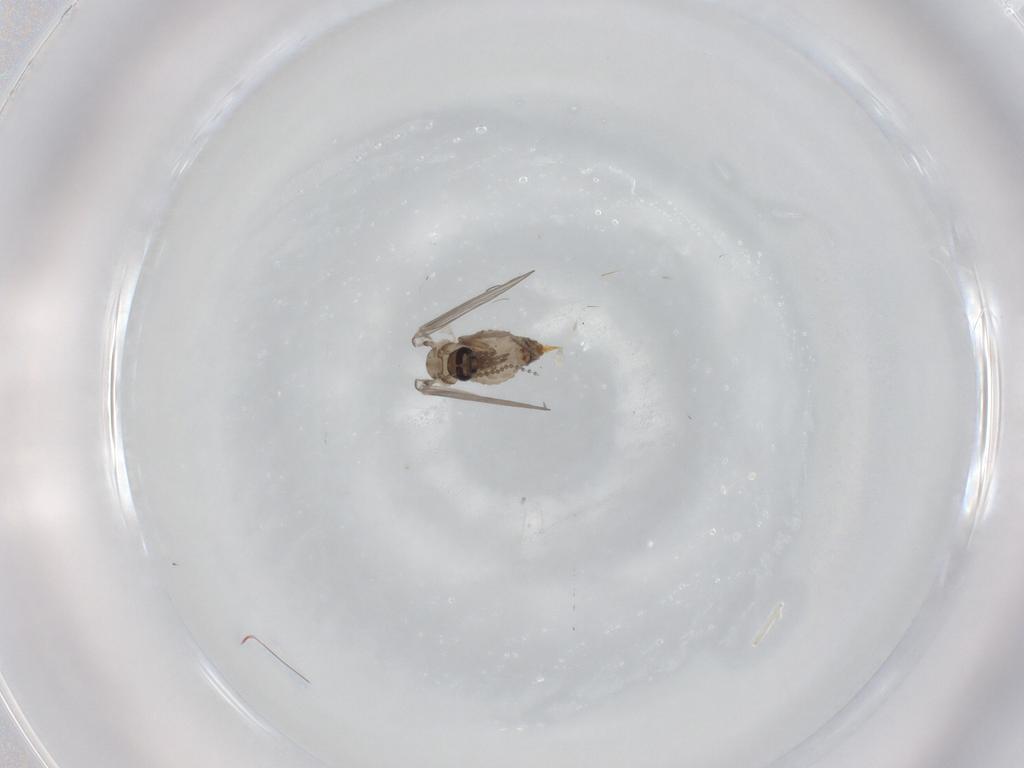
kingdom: Animalia
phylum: Arthropoda
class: Insecta
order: Diptera
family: Psychodidae
